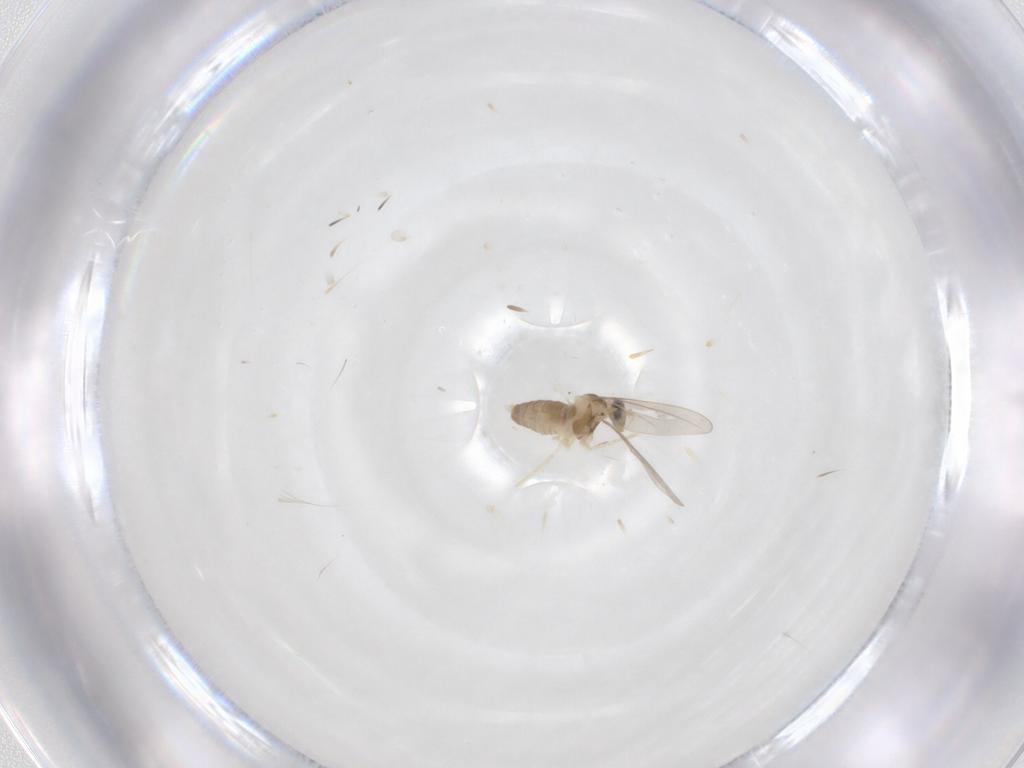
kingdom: Animalia
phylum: Arthropoda
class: Insecta
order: Diptera
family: Cecidomyiidae
